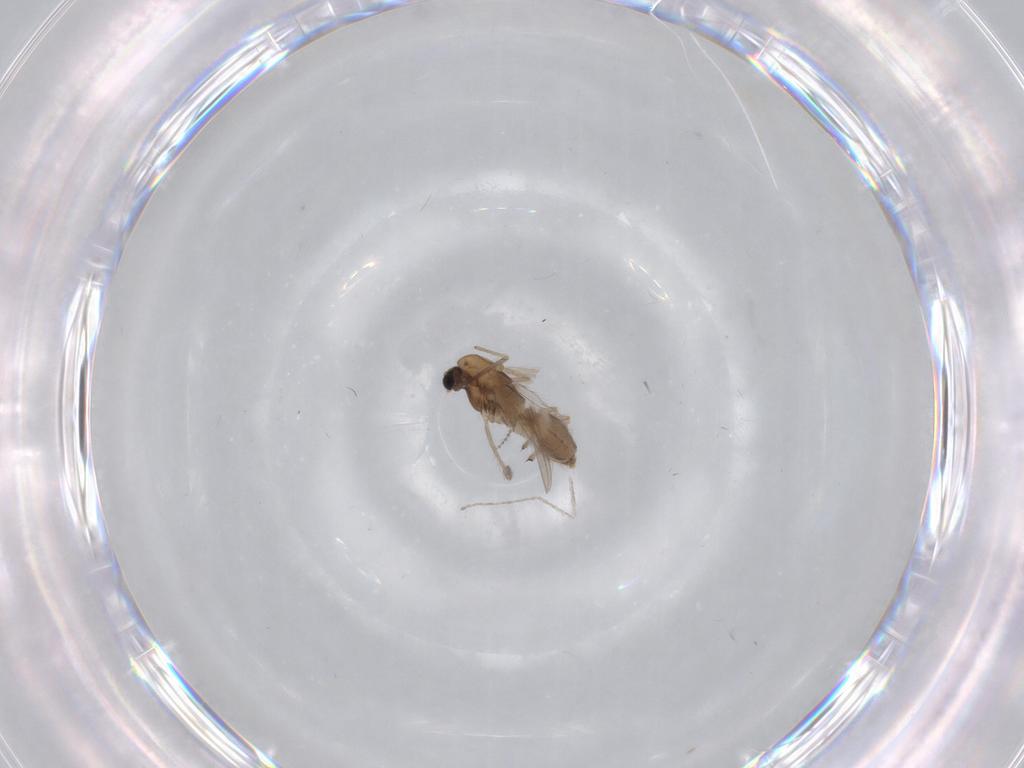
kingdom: Animalia
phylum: Arthropoda
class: Insecta
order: Diptera
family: Chironomidae
